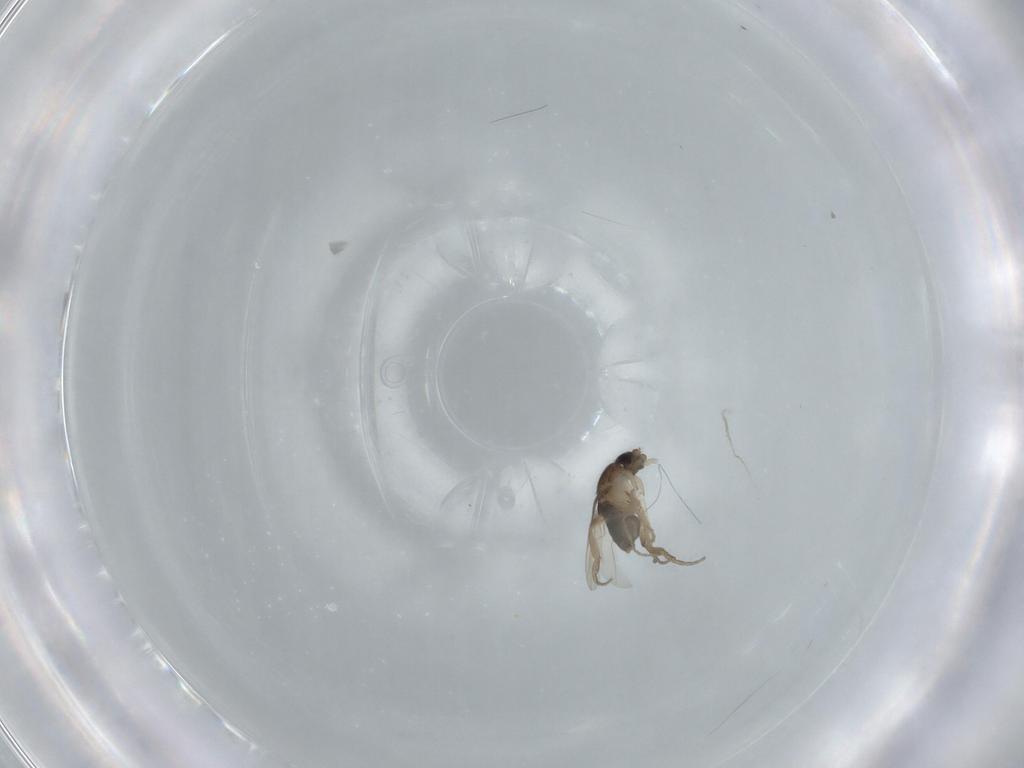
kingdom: Animalia
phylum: Arthropoda
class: Insecta
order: Diptera
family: Phoridae
